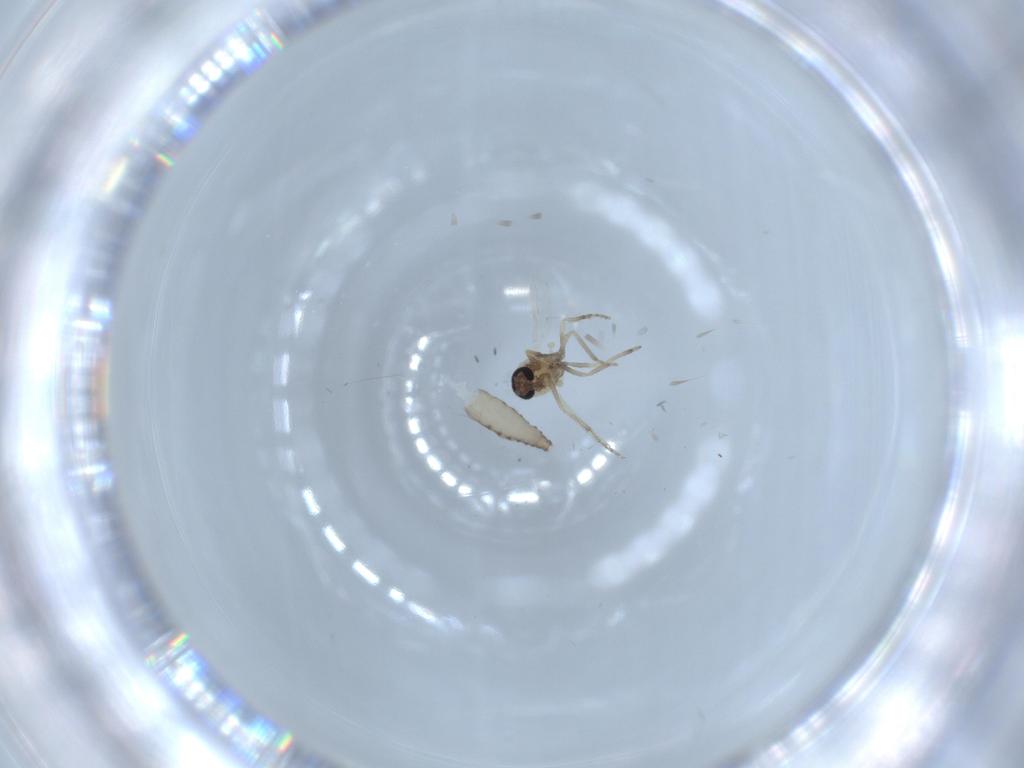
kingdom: Animalia
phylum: Arthropoda
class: Insecta
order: Diptera
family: Ceratopogonidae
